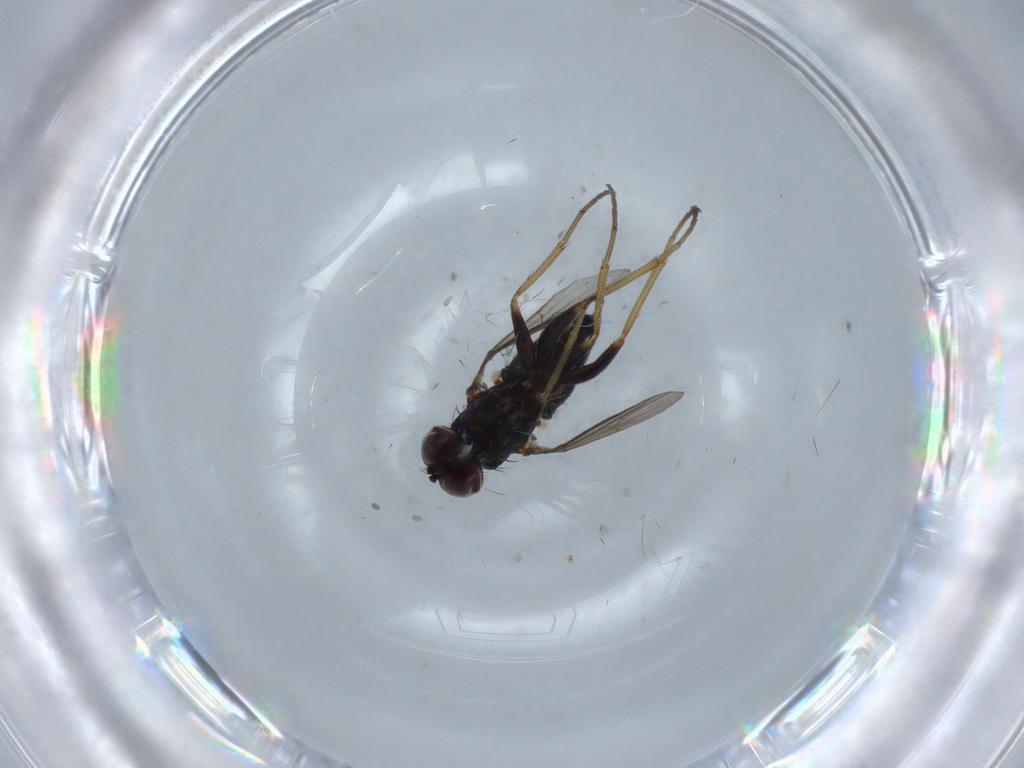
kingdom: Animalia
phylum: Arthropoda
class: Insecta
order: Diptera
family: Dolichopodidae
